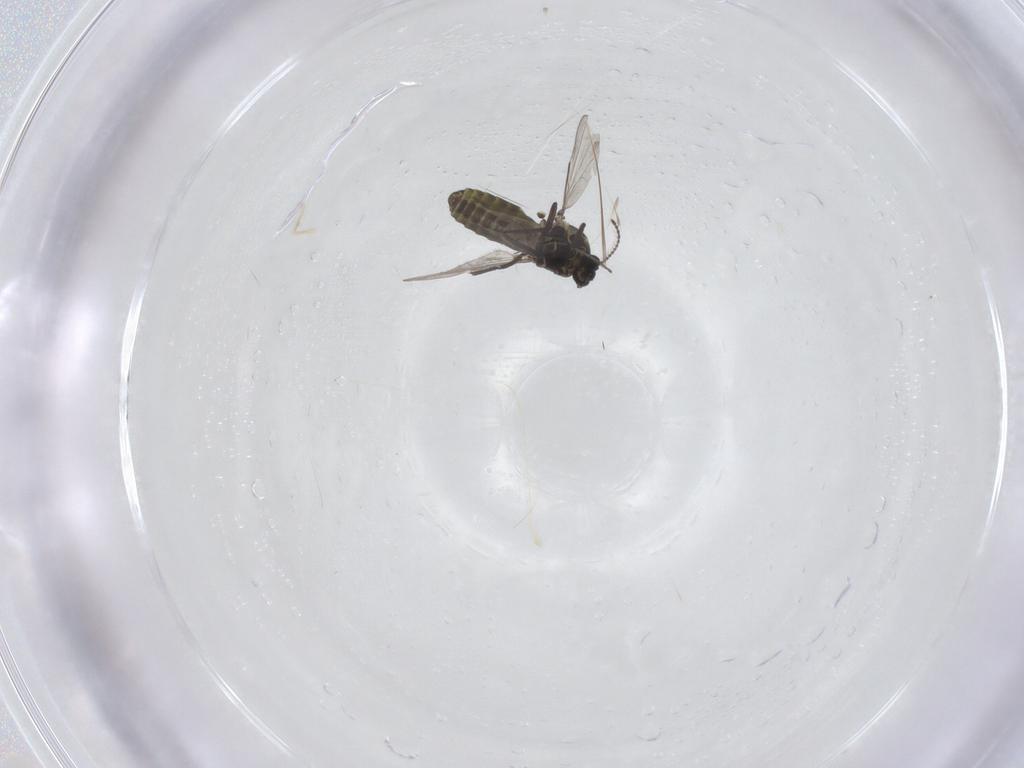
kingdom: Animalia
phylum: Arthropoda
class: Insecta
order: Diptera
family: Ceratopogonidae
